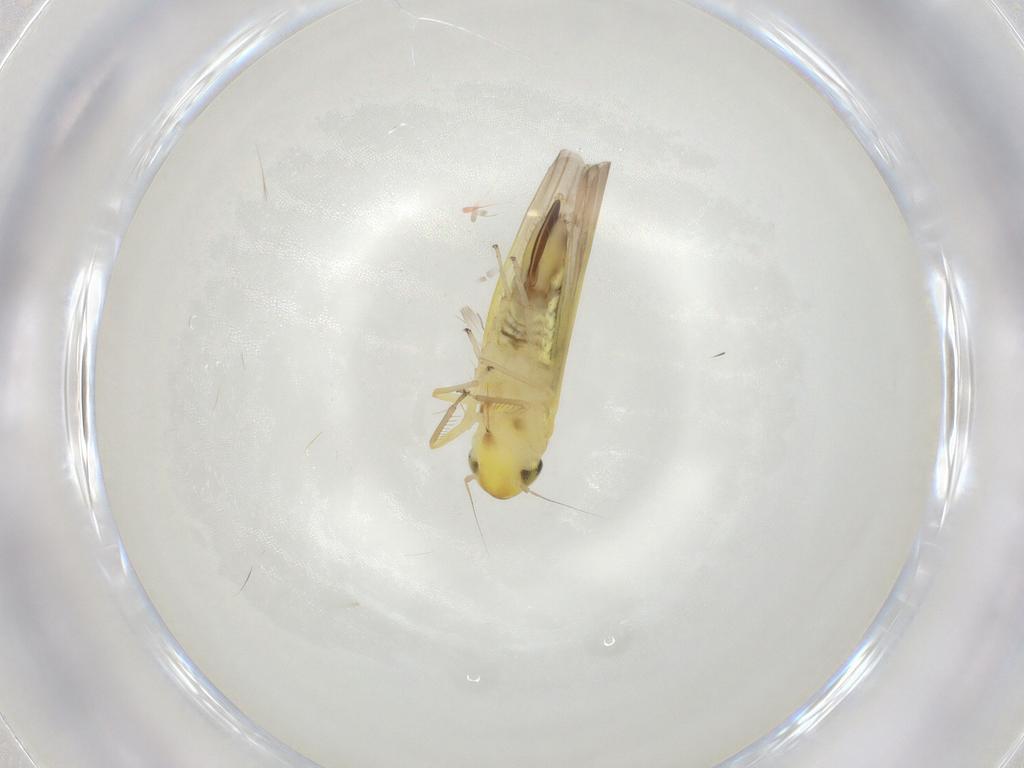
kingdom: Animalia
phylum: Arthropoda
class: Insecta
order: Hemiptera
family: Cicadellidae
